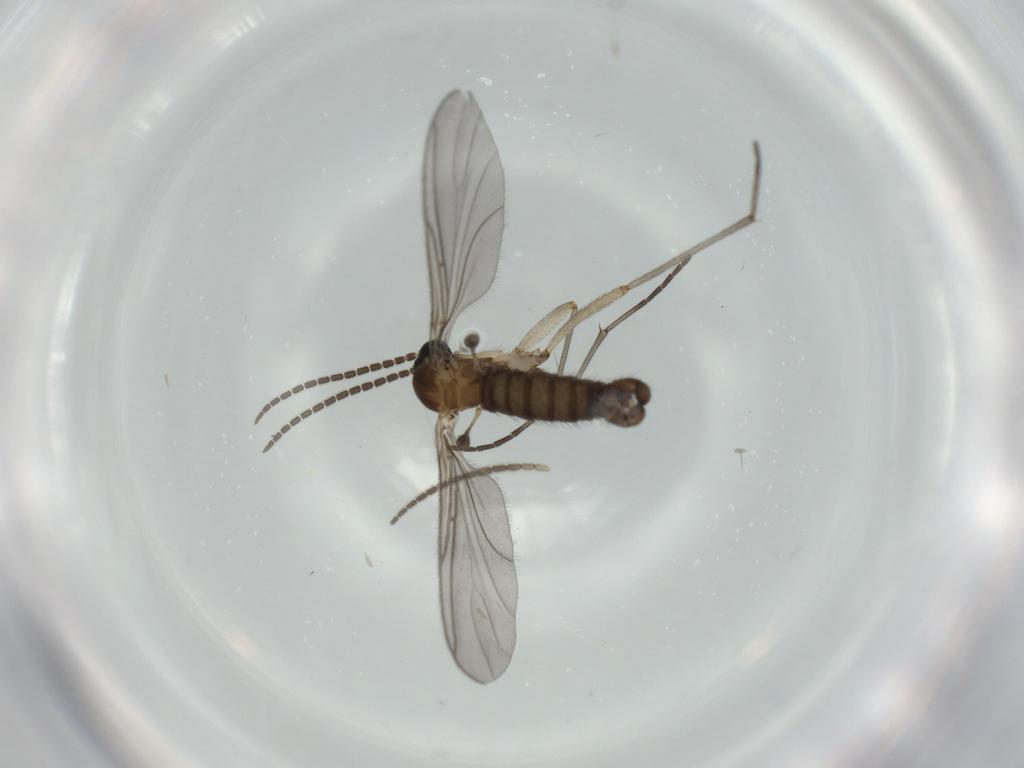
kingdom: Animalia
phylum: Arthropoda
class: Insecta
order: Diptera
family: Sciaridae
